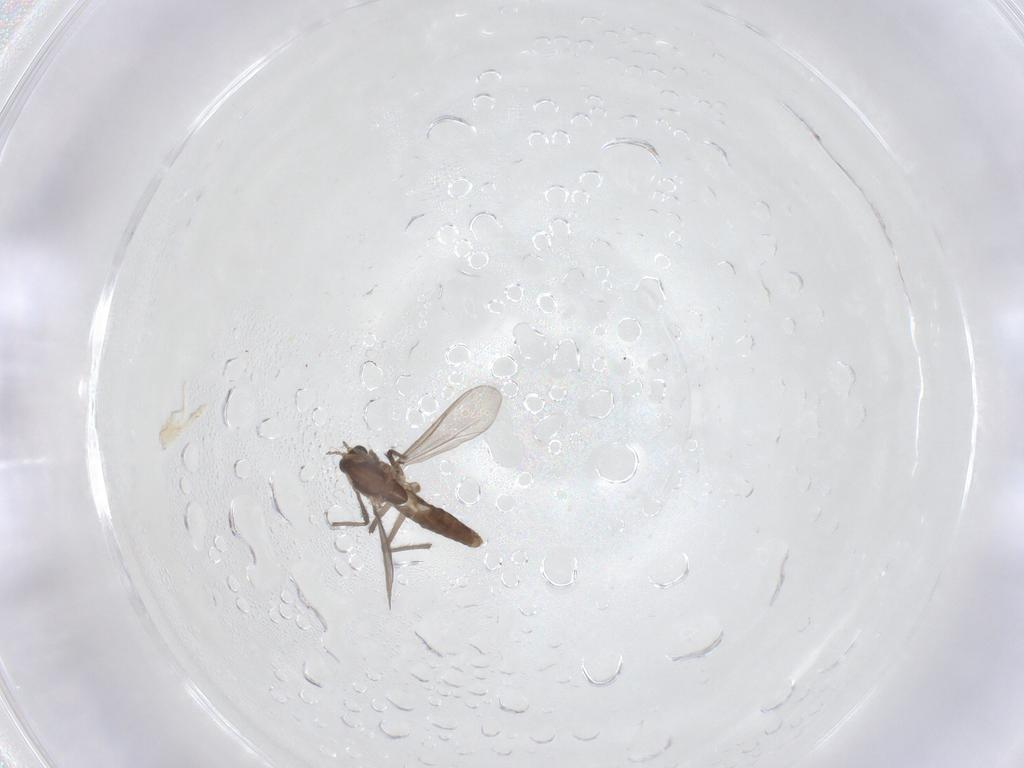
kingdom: Animalia
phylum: Arthropoda
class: Insecta
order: Diptera
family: Chironomidae
